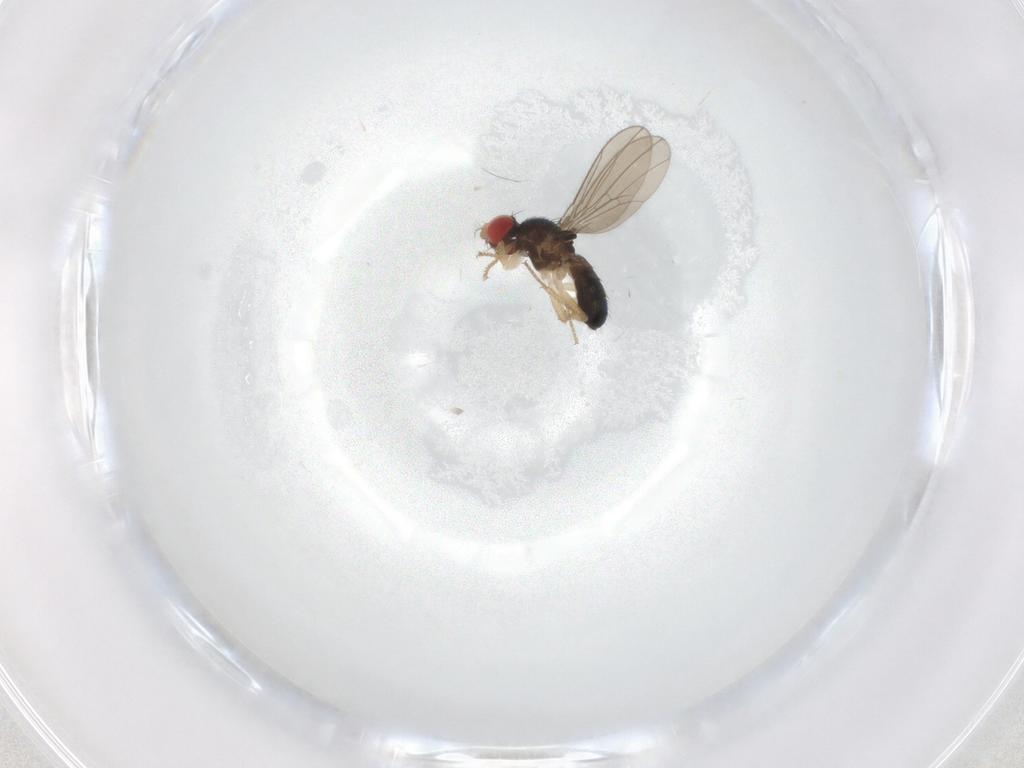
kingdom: Animalia
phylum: Arthropoda
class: Insecta
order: Diptera
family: Drosophilidae
